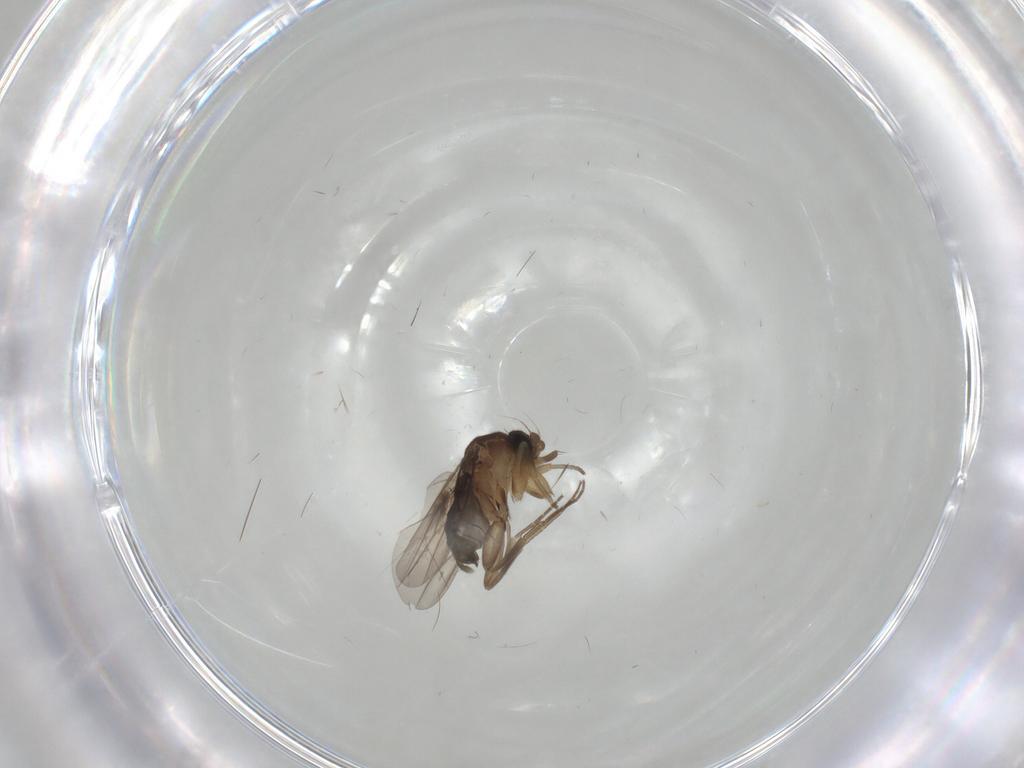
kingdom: Animalia
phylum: Arthropoda
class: Insecta
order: Diptera
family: Phoridae
